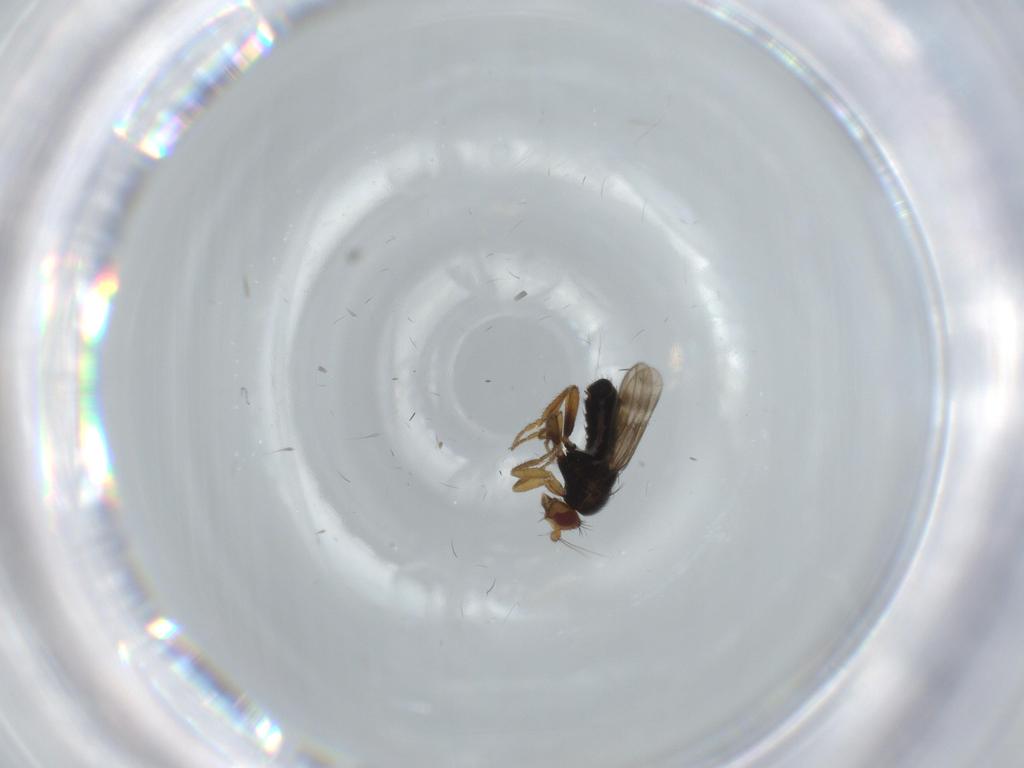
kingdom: Animalia
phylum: Arthropoda
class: Insecta
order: Diptera
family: Sphaeroceridae
